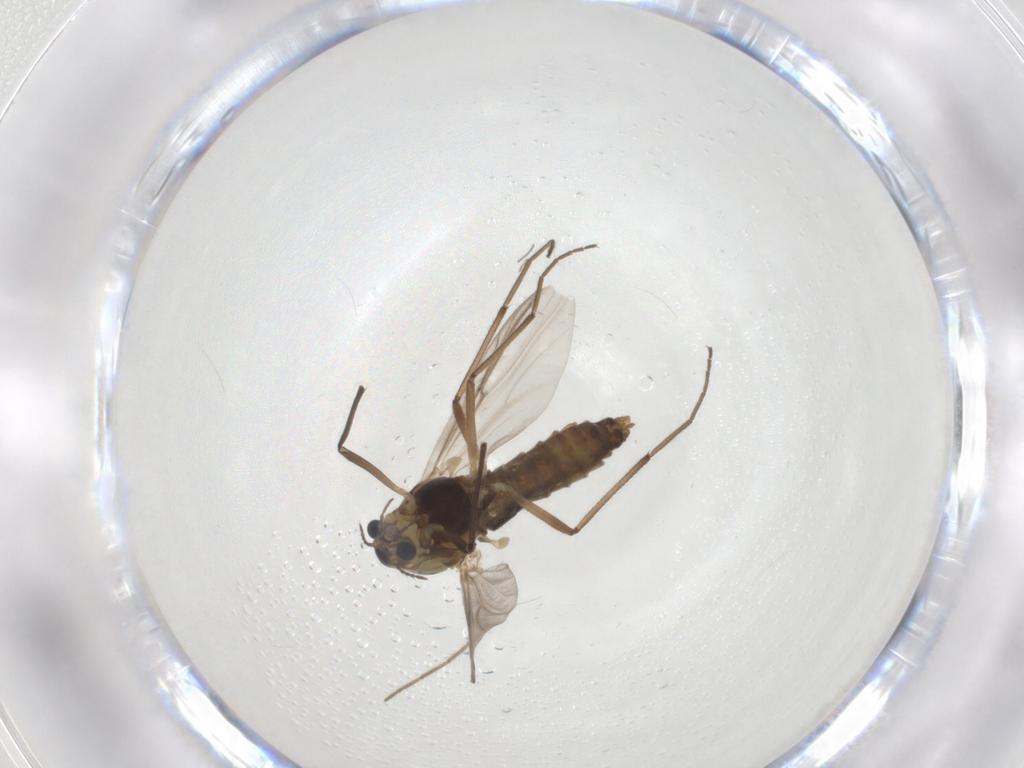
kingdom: Animalia
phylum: Arthropoda
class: Insecta
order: Diptera
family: Chironomidae
